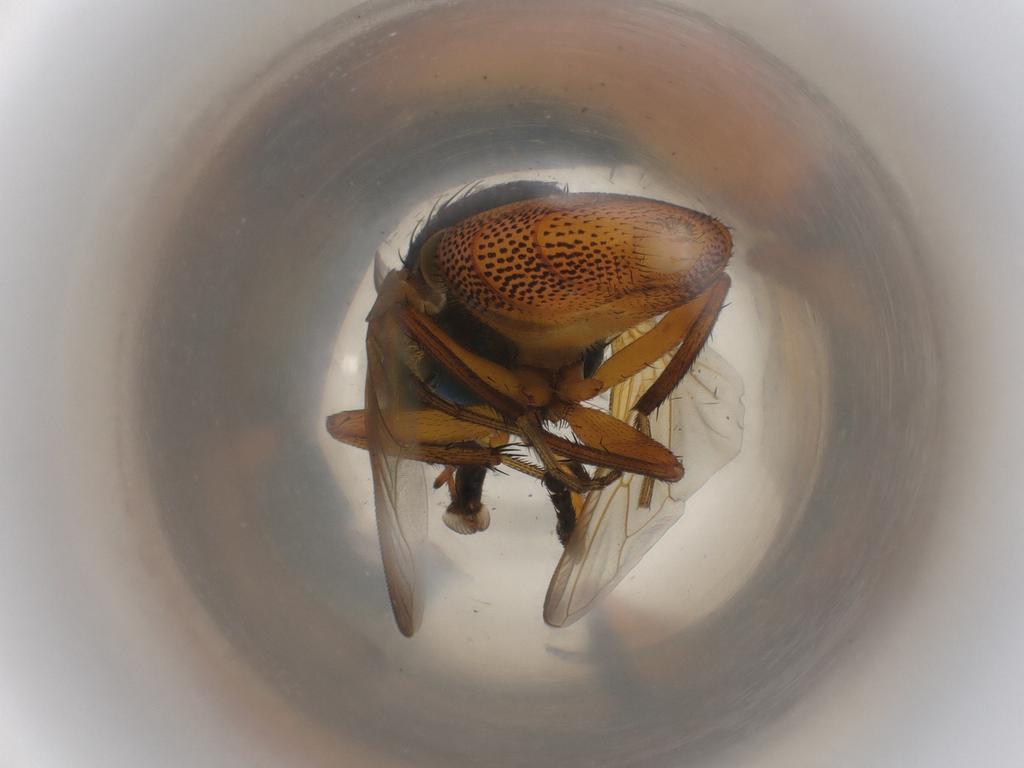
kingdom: Animalia
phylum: Arthropoda
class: Insecta
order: Diptera
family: Calliphoridae
